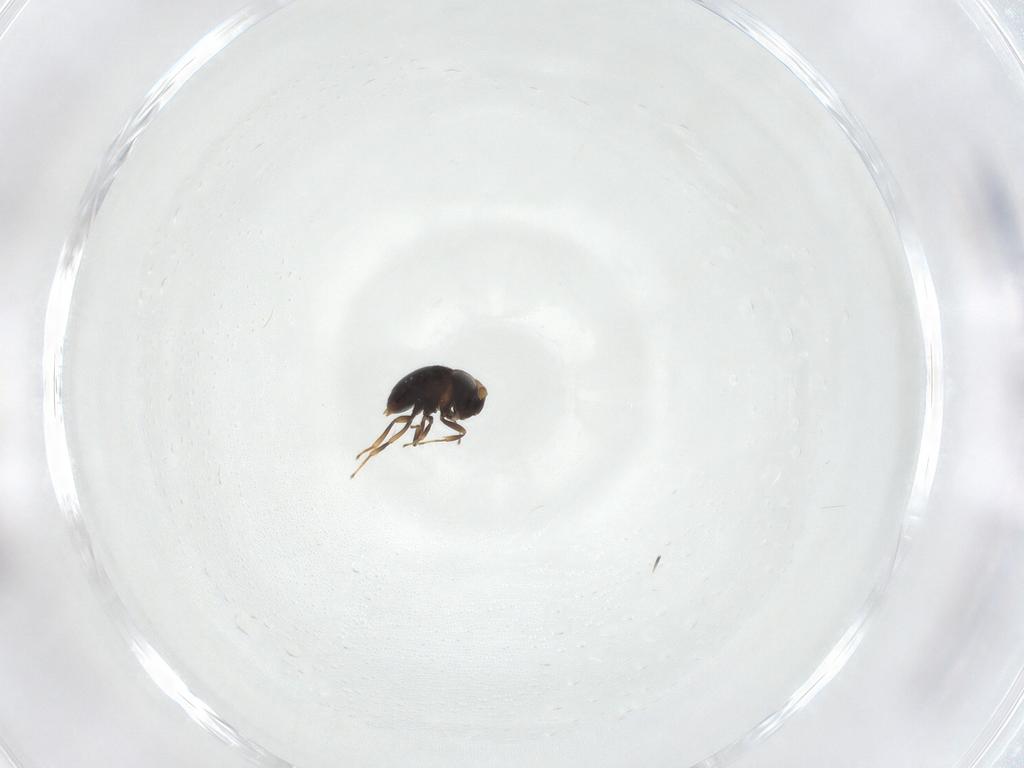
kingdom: Animalia
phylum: Arthropoda
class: Insecta
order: Hymenoptera
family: Scelionidae
